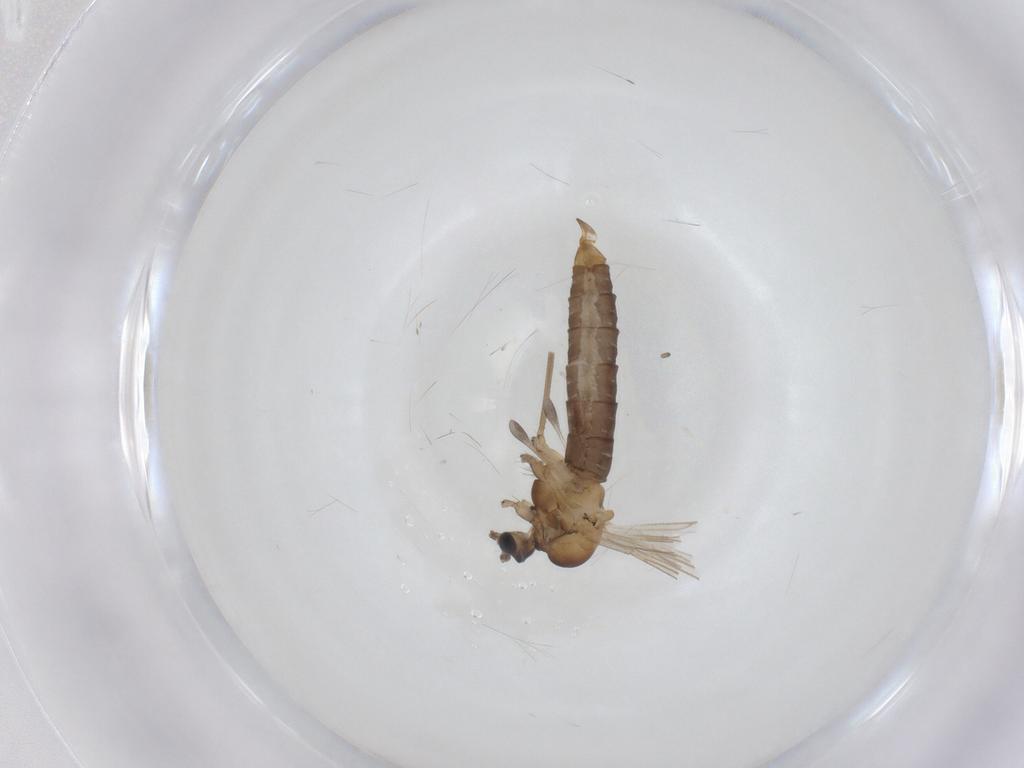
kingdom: Animalia
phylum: Arthropoda
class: Insecta
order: Diptera
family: Trichoceridae
